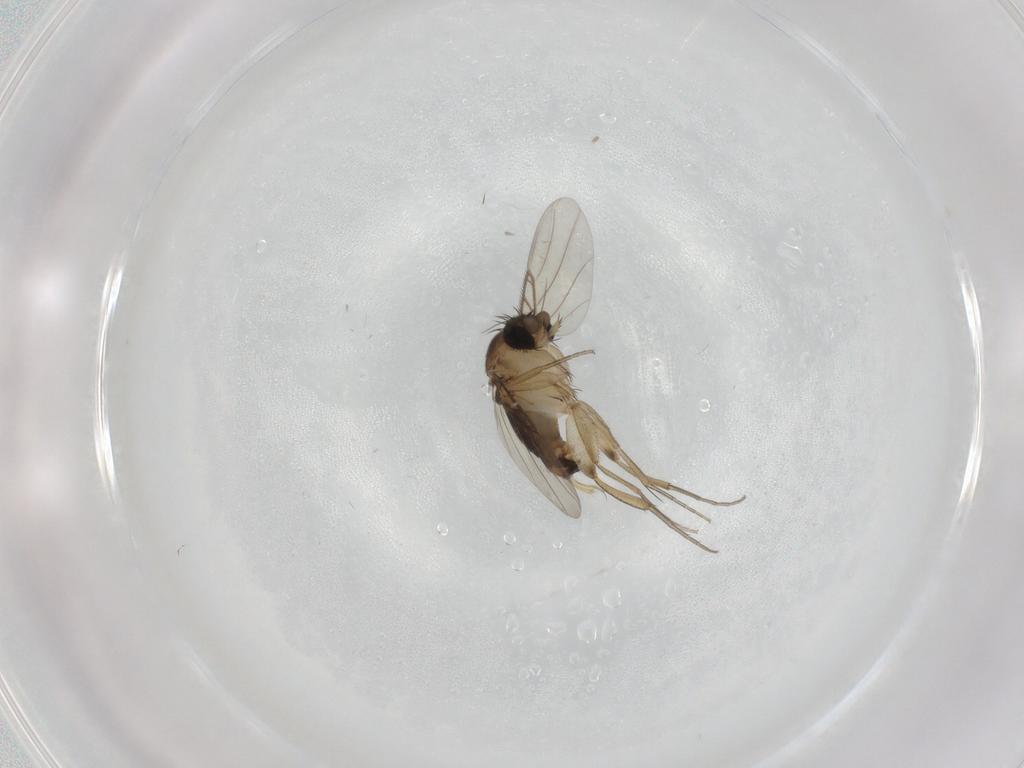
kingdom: Animalia
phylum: Arthropoda
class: Insecta
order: Diptera
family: Phoridae
